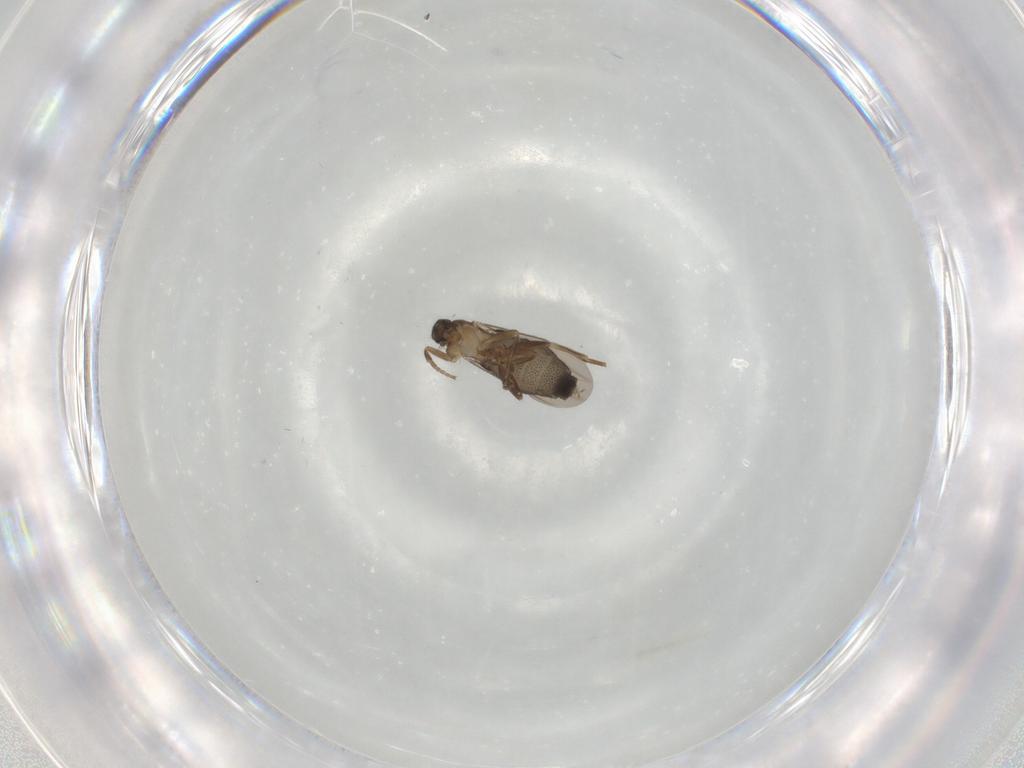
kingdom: Animalia
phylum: Arthropoda
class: Insecta
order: Diptera
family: Phoridae
